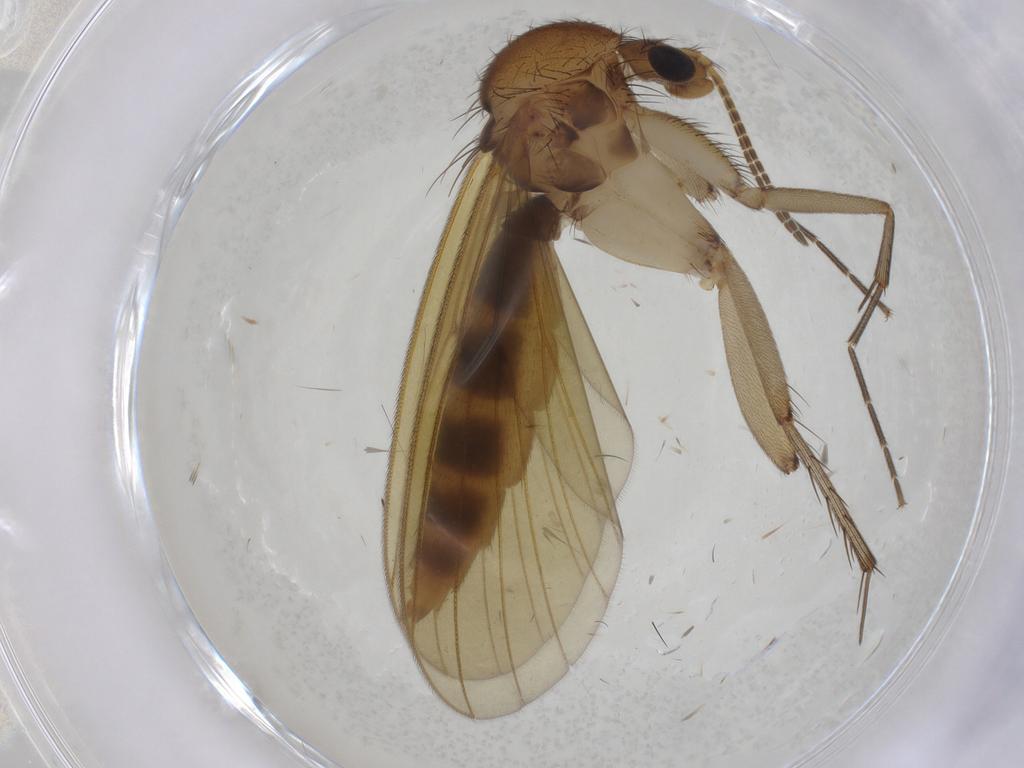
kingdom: Animalia
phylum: Arthropoda
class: Insecta
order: Diptera
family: Mycetophilidae
